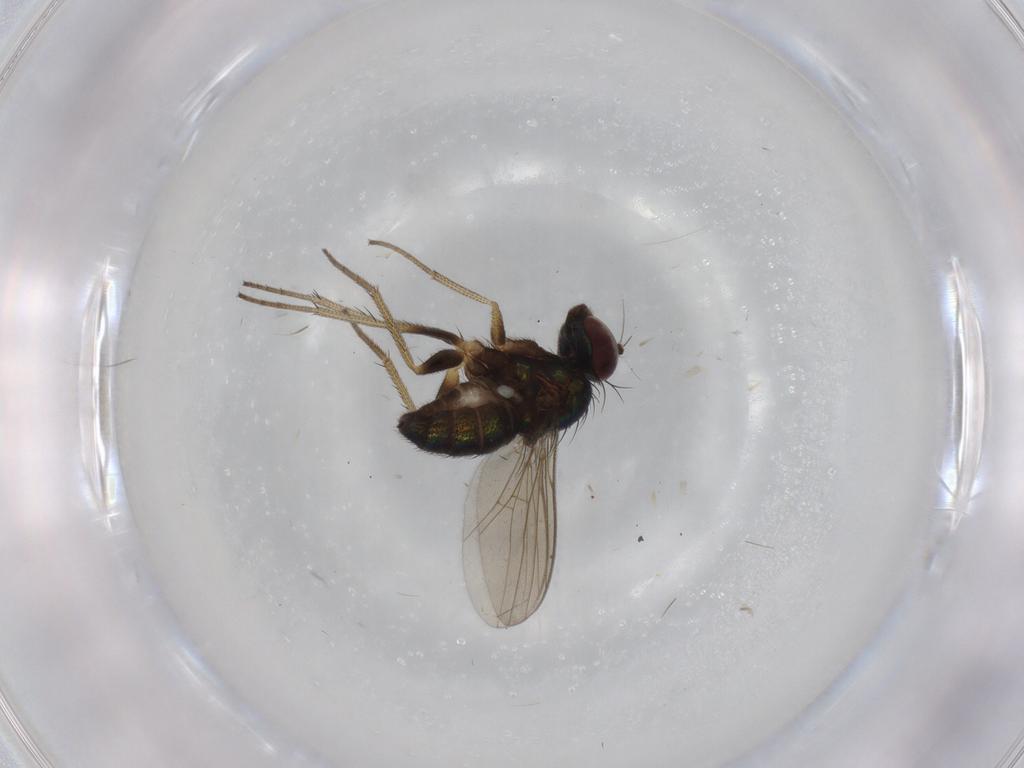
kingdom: Animalia
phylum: Arthropoda
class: Insecta
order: Diptera
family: Phoridae
